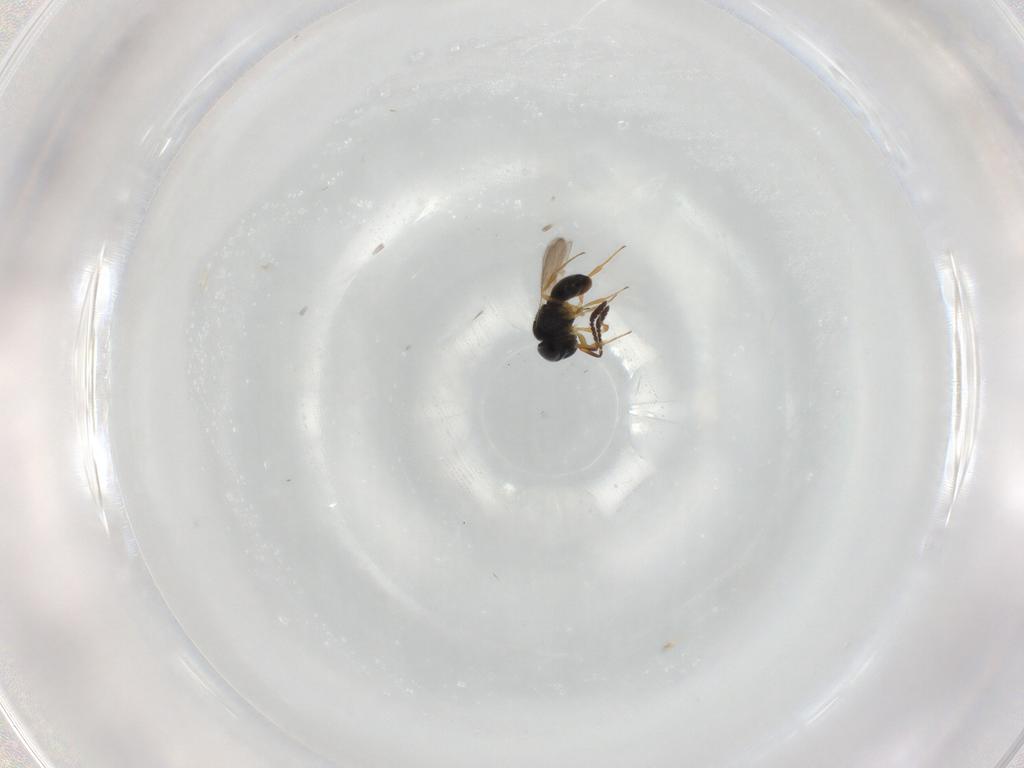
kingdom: Animalia
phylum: Arthropoda
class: Insecta
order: Hymenoptera
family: Scelionidae
